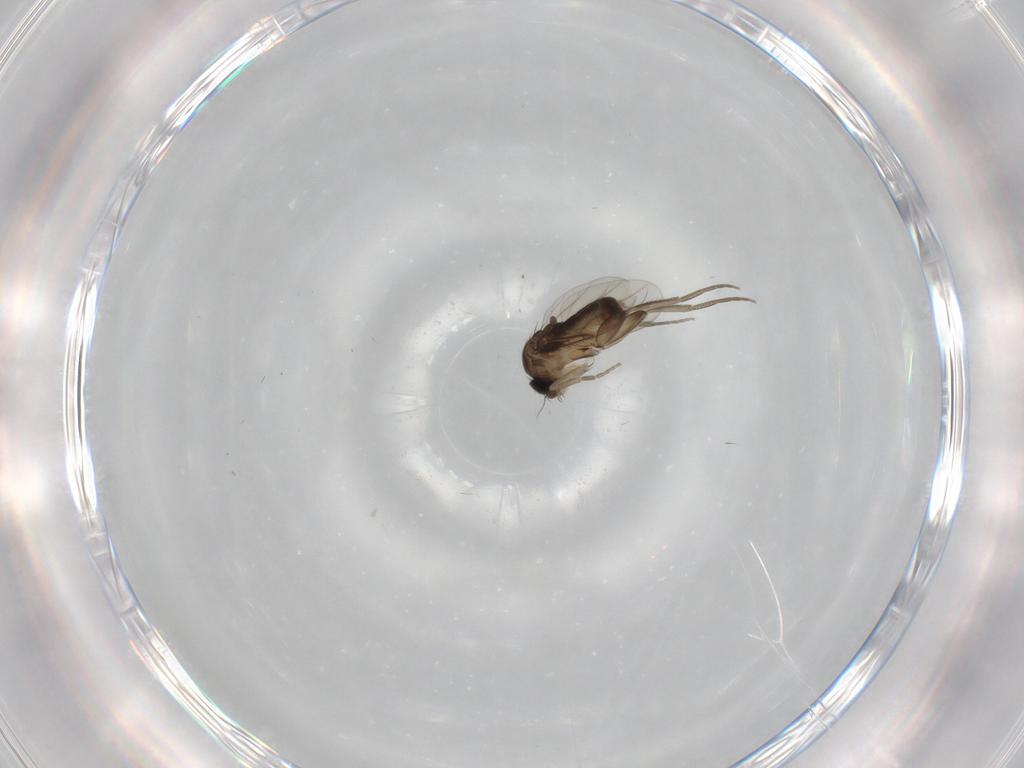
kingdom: Animalia
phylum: Arthropoda
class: Insecta
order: Diptera
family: Phoridae
